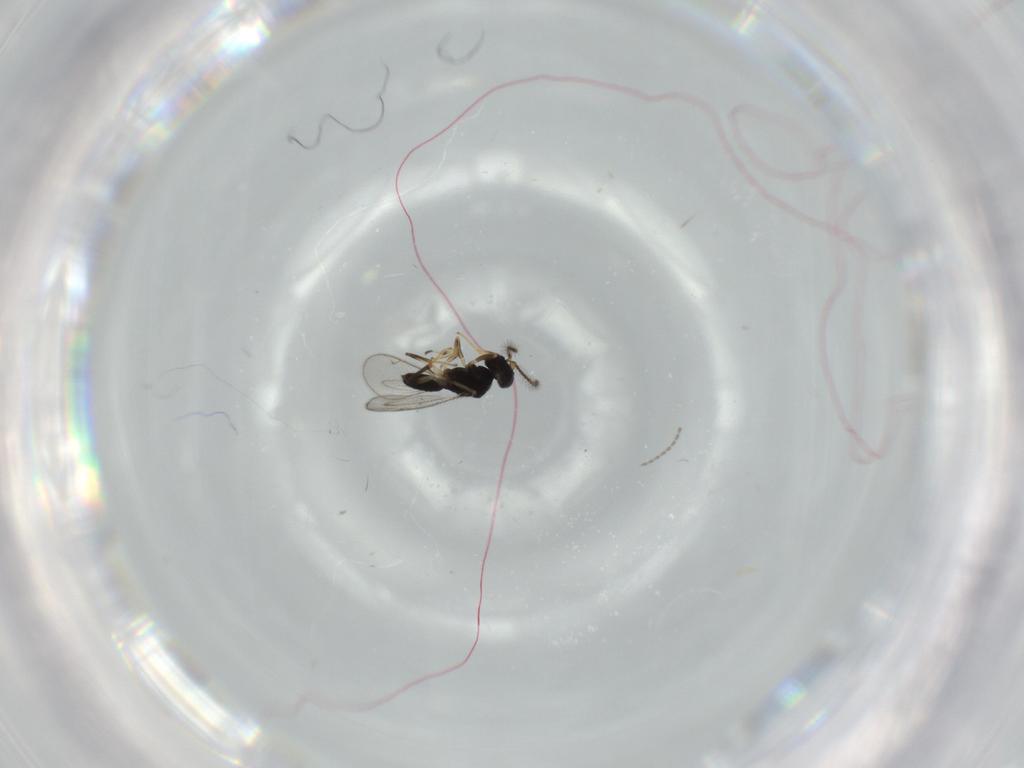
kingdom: Animalia
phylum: Arthropoda
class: Insecta
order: Hymenoptera
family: Eupelmidae
